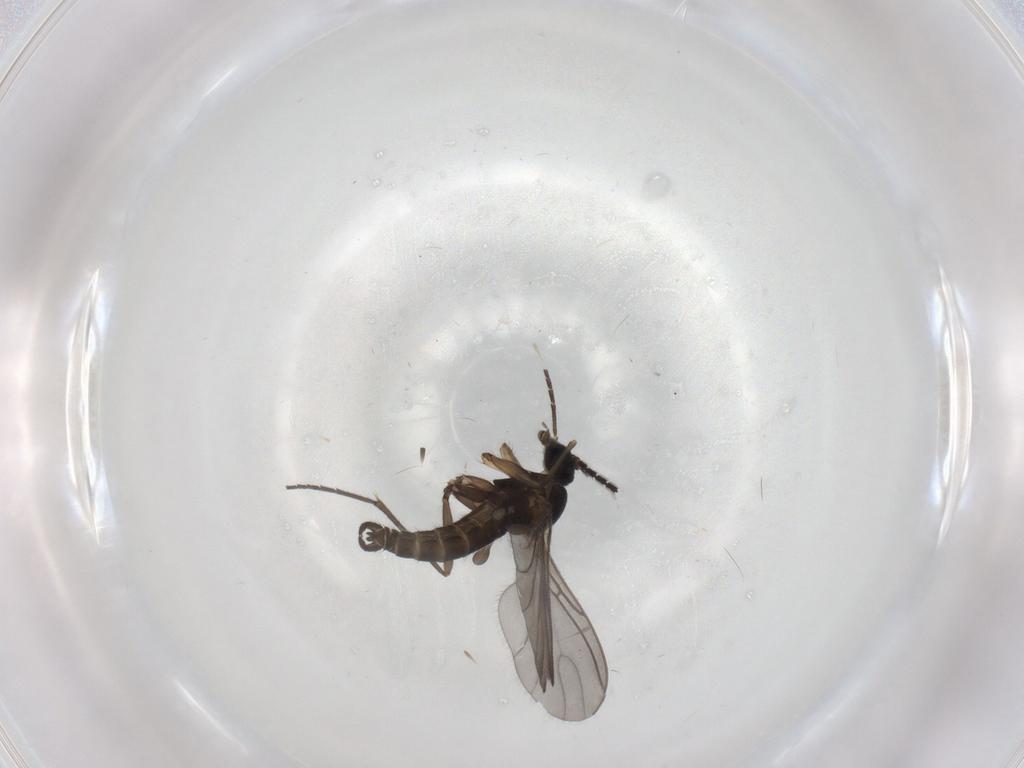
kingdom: Animalia
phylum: Arthropoda
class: Insecta
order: Diptera
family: Sciaridae
